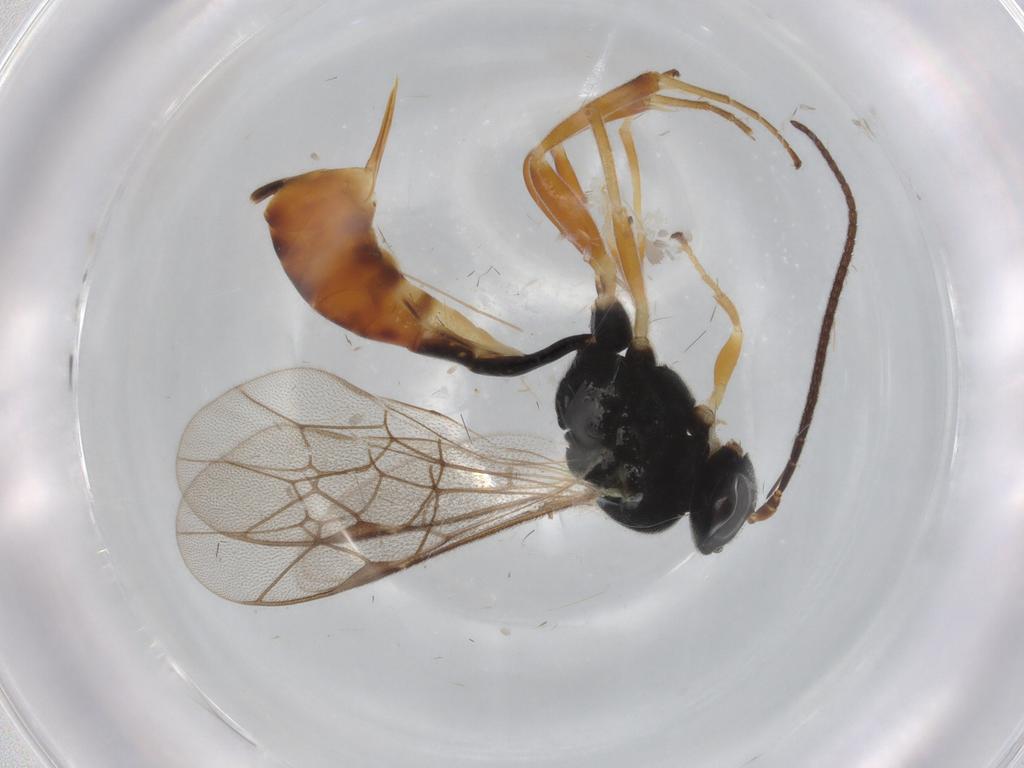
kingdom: Animalia
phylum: Arthropoda
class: Insecta
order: Hymenoptera
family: Ichneumonidae
